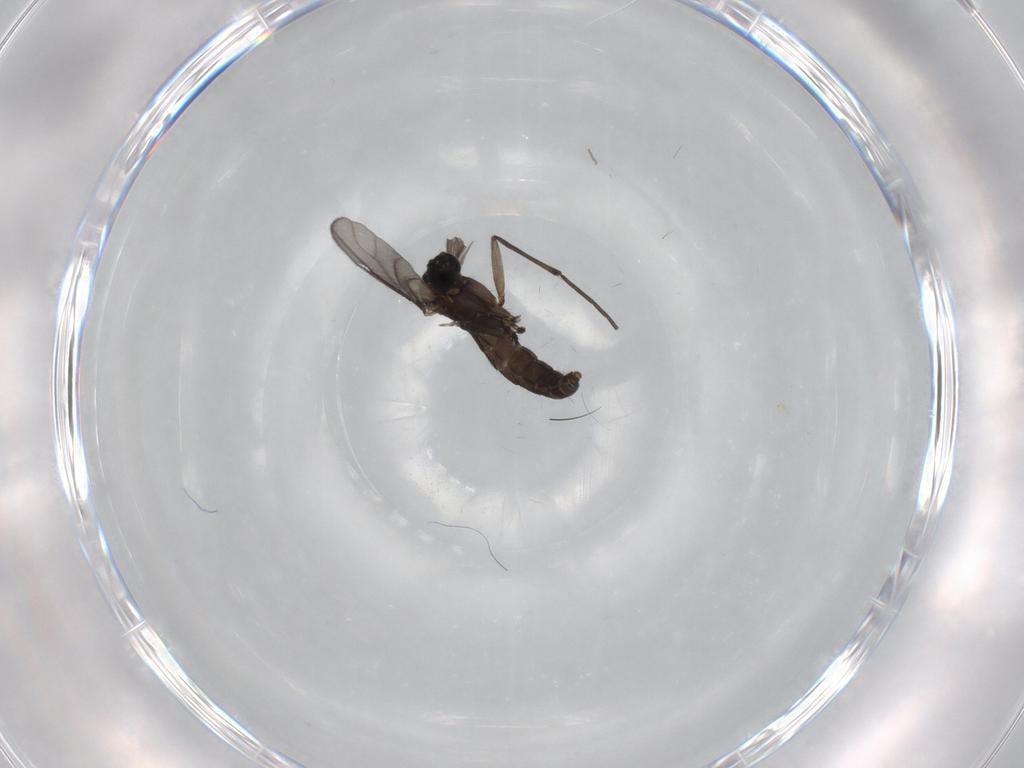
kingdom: Animalia
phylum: Arthropoda
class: Insecta
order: Diptera
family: Sciaridae
